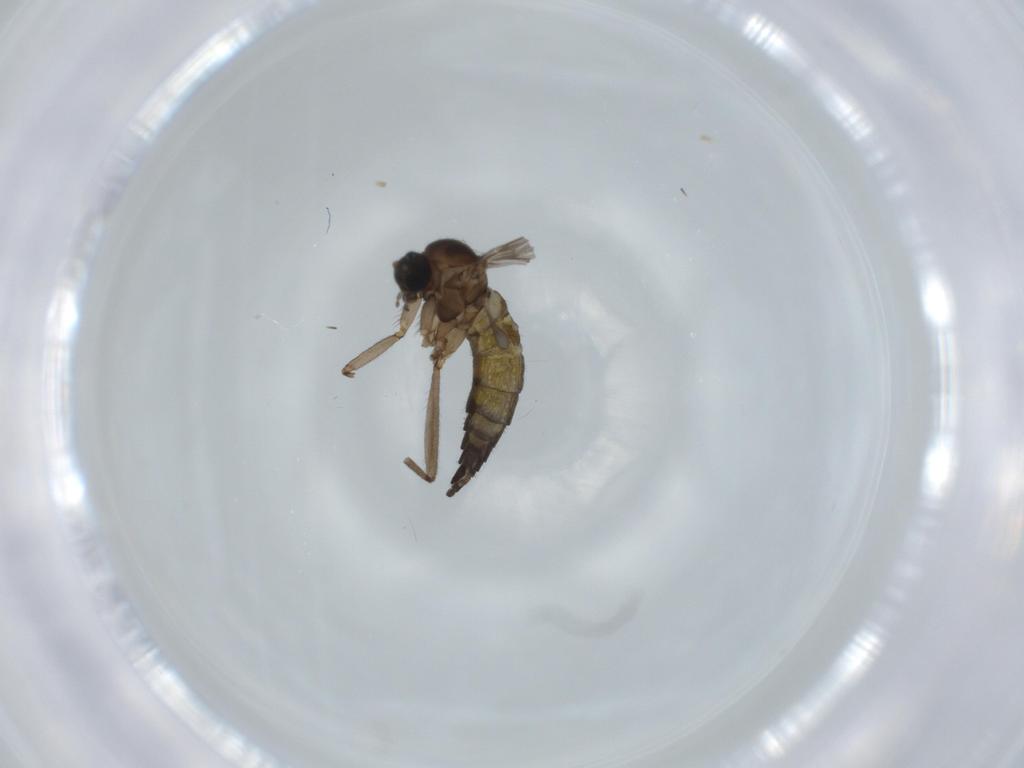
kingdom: Animalia
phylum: Arthropoda
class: Insecta
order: Diptera
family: Sciaridae
